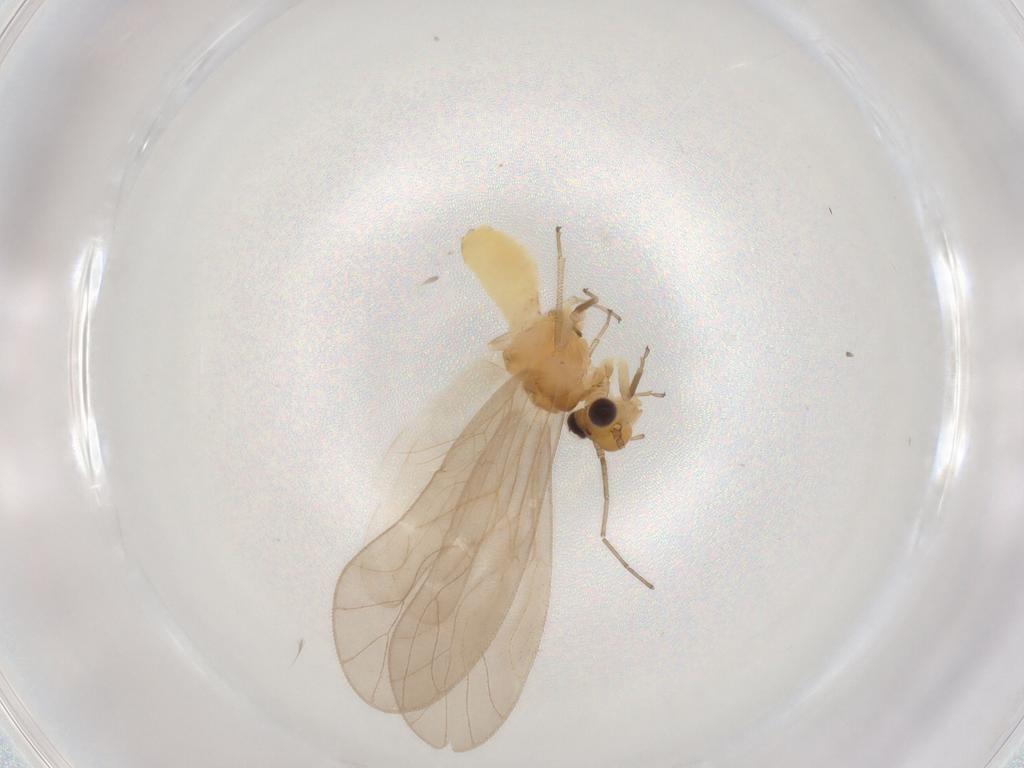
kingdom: Animalia
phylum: Arthropoda
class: Insecta
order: Psocodea
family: Caeciliusidae
